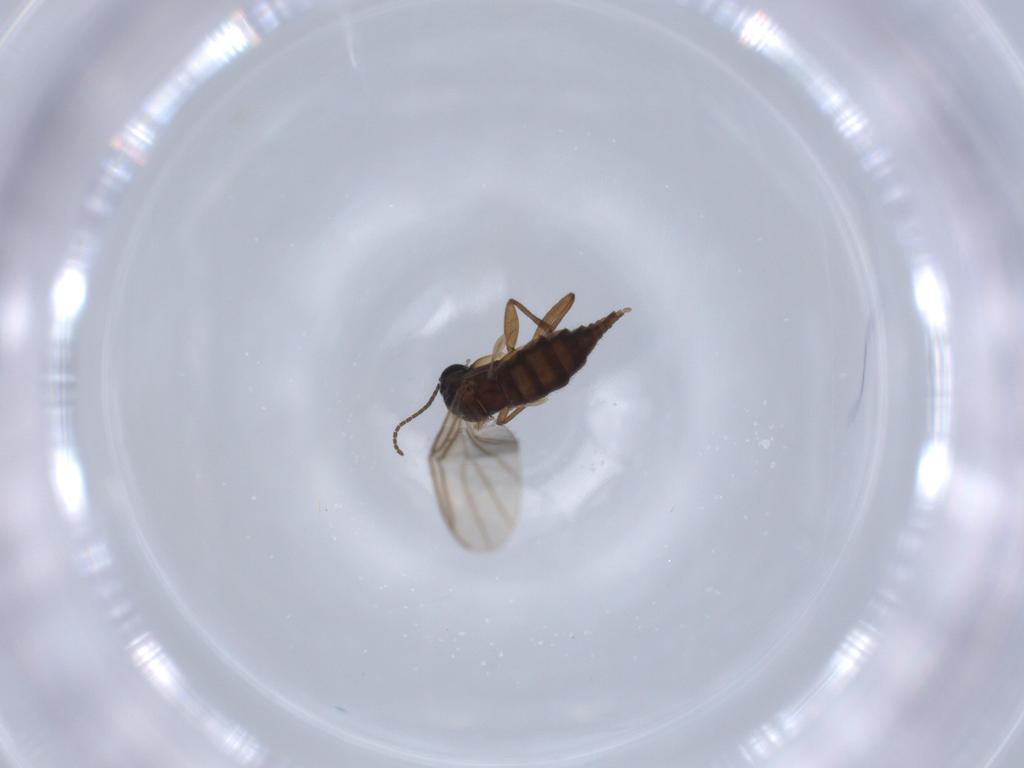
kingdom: Animalia
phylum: Arthropoda
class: Insecta
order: Diptera
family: Sciaridae
